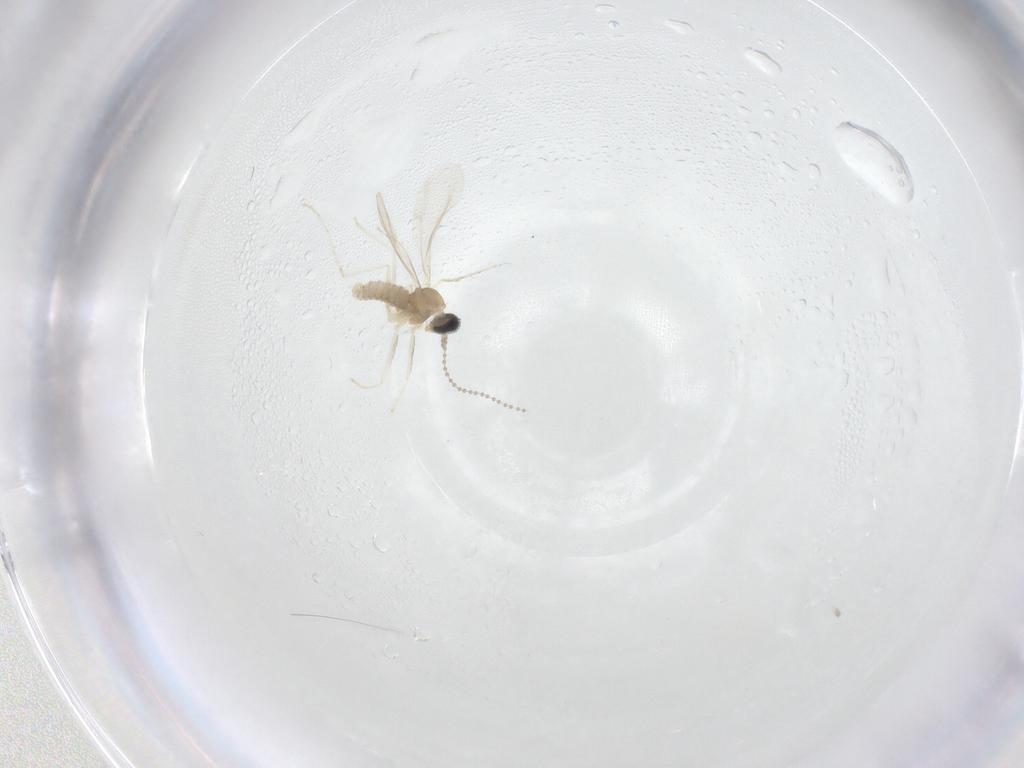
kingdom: Animalia
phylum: Arthropoda
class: Insecta
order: Diptera
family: Cecidomyiidae
